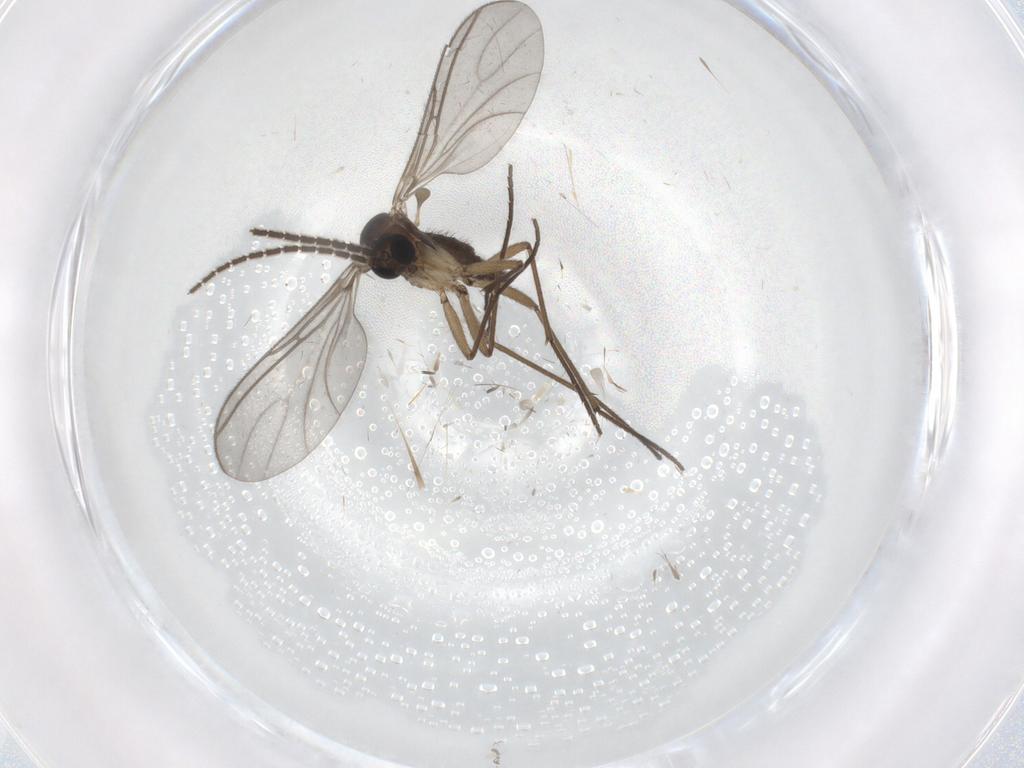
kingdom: Animalia
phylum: Arthropoda
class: Insecta
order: Diptera
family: Sciaridae
